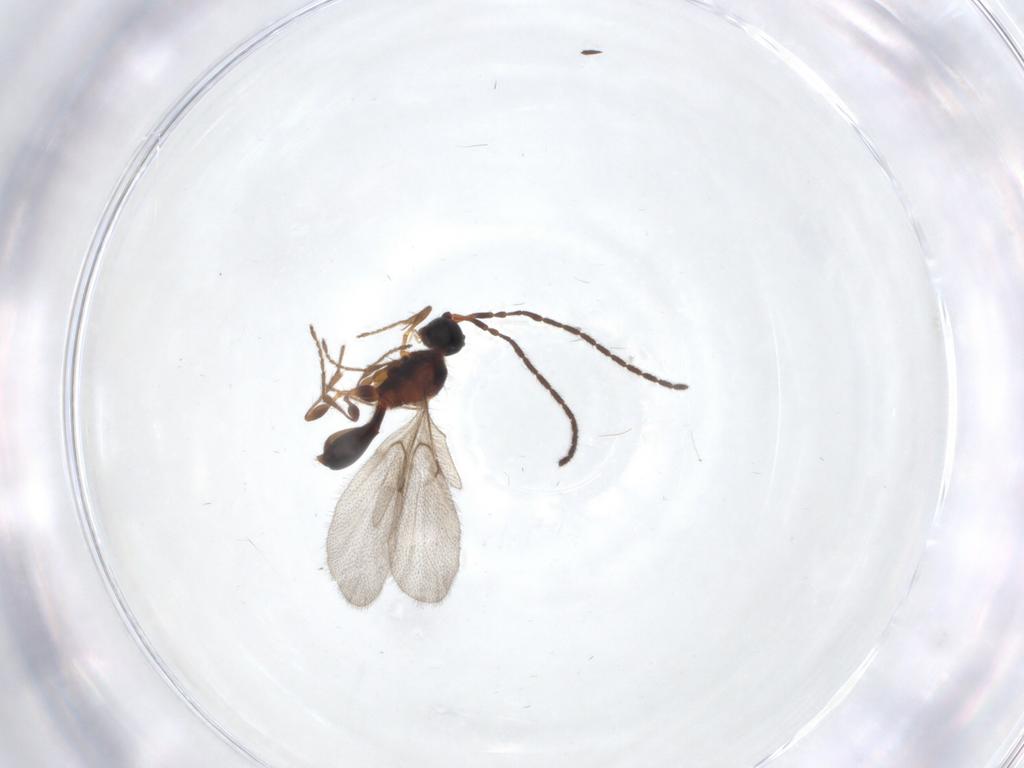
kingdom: Animalia
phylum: Arthropoda
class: Insecta
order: Hymenoptera
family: Diapriidae
